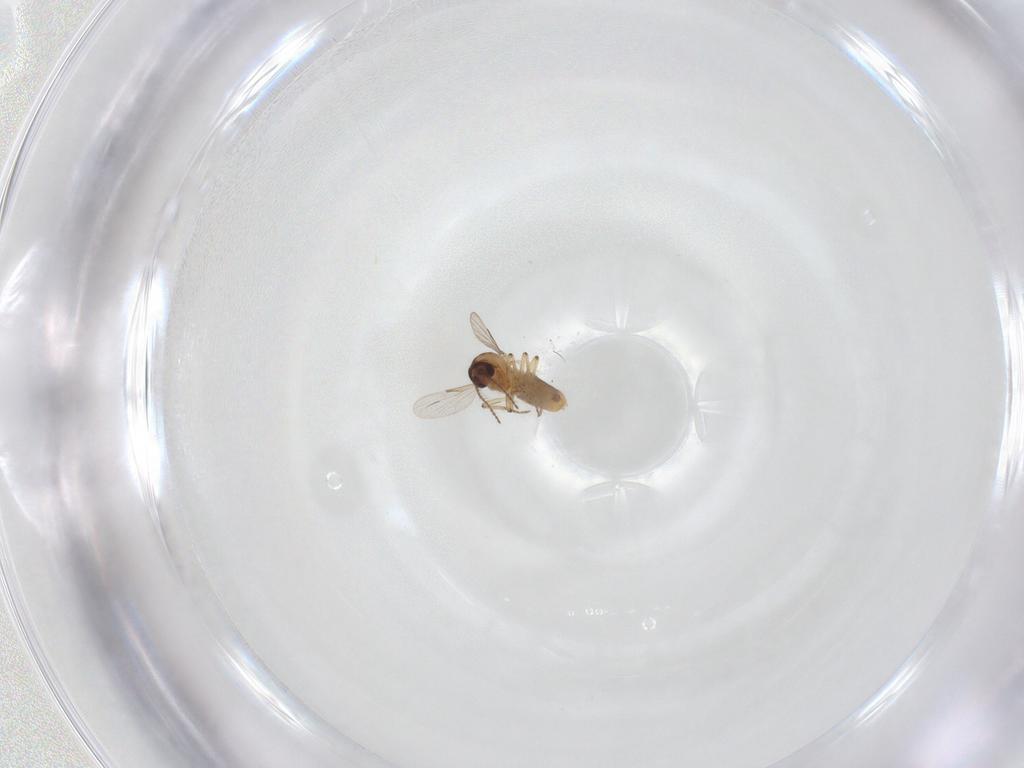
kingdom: Animalia
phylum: Arthropoda
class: Insecta
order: Diptera
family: Ceratopogonidae
